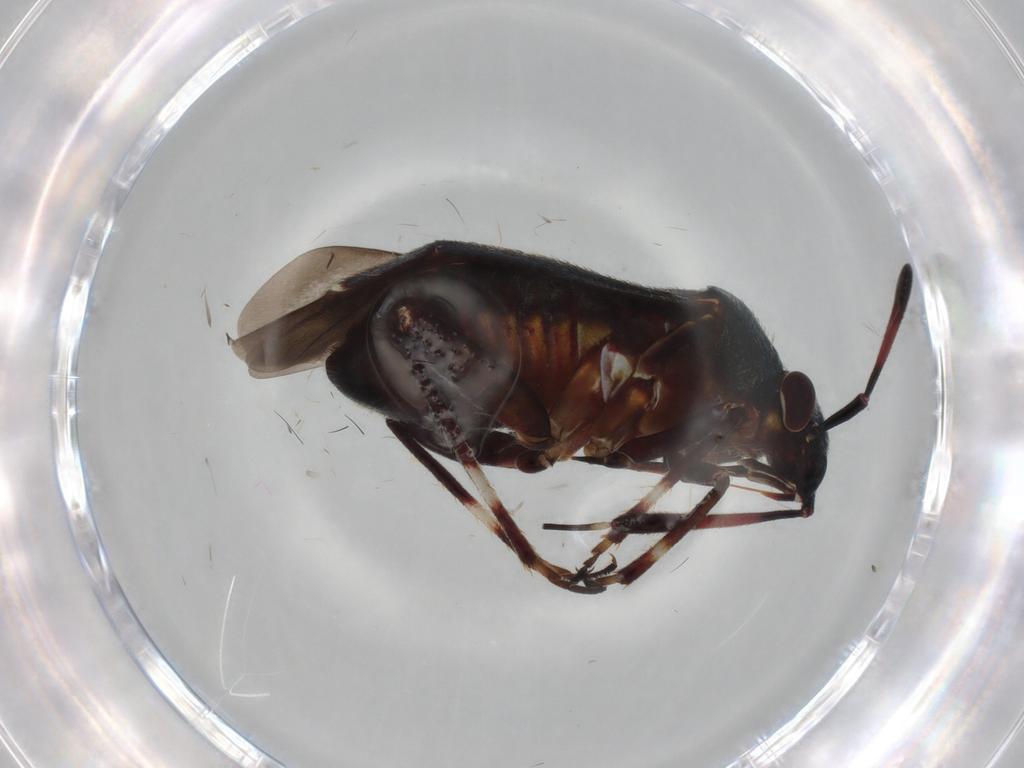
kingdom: Animalia
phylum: Arthropoda
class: Insecta
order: Hemiptera
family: Miridae
